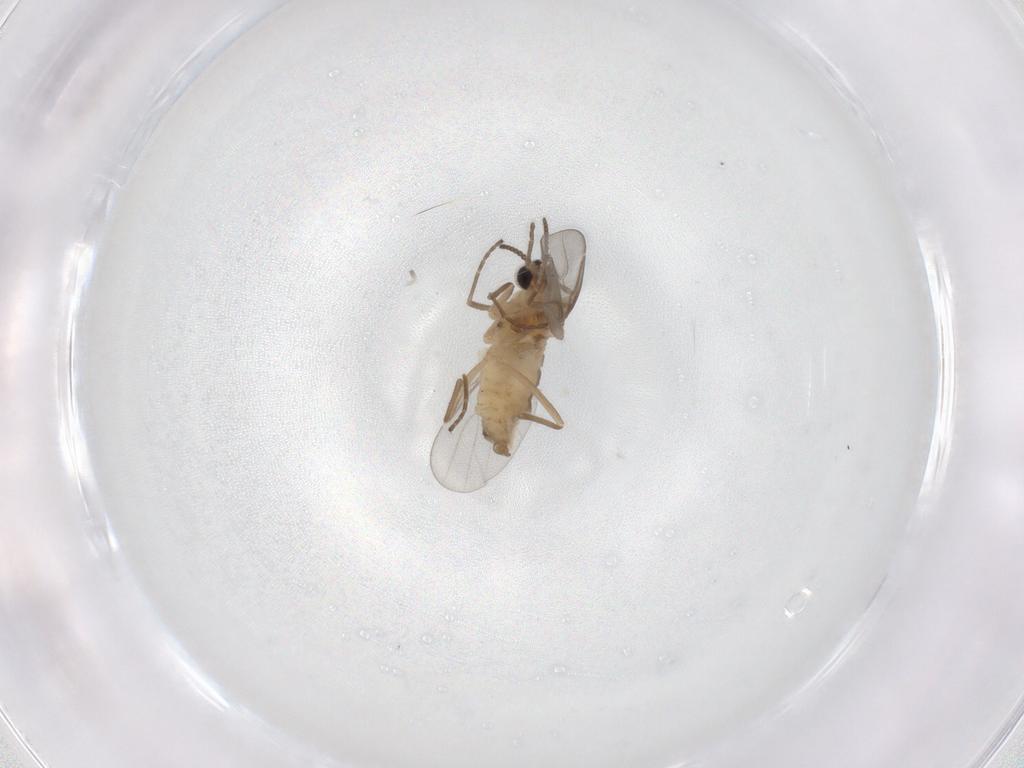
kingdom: Animalia
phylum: Arthropoda
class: Insecta
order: Diptera
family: Cecidomyiidae
